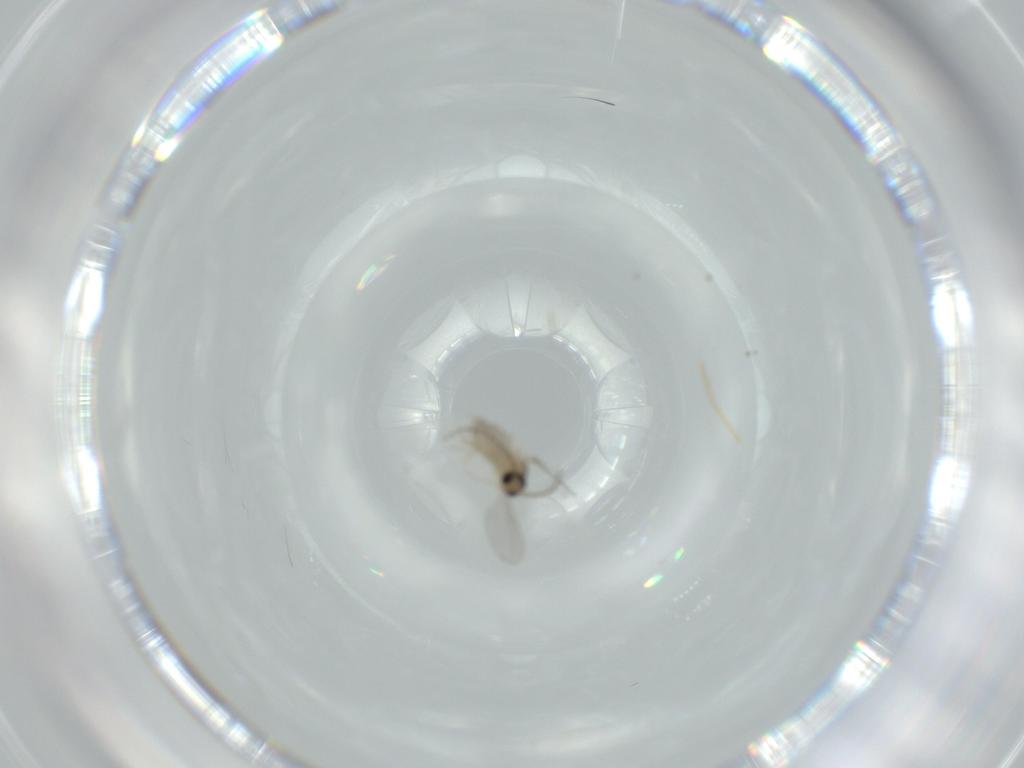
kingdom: Animalia
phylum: Arthropoda
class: Insecta
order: Diptera
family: Cecidomyiidae
